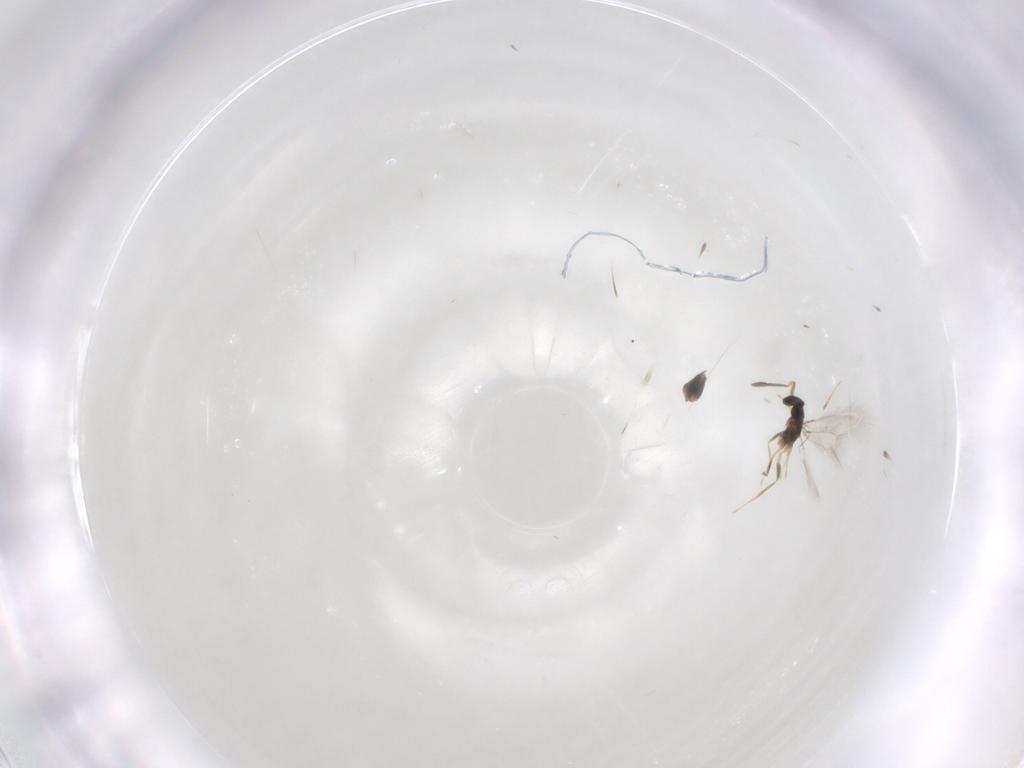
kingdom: Animalia
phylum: Arthropoda
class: Insecta
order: Hymenoptera
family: Mymaridae
